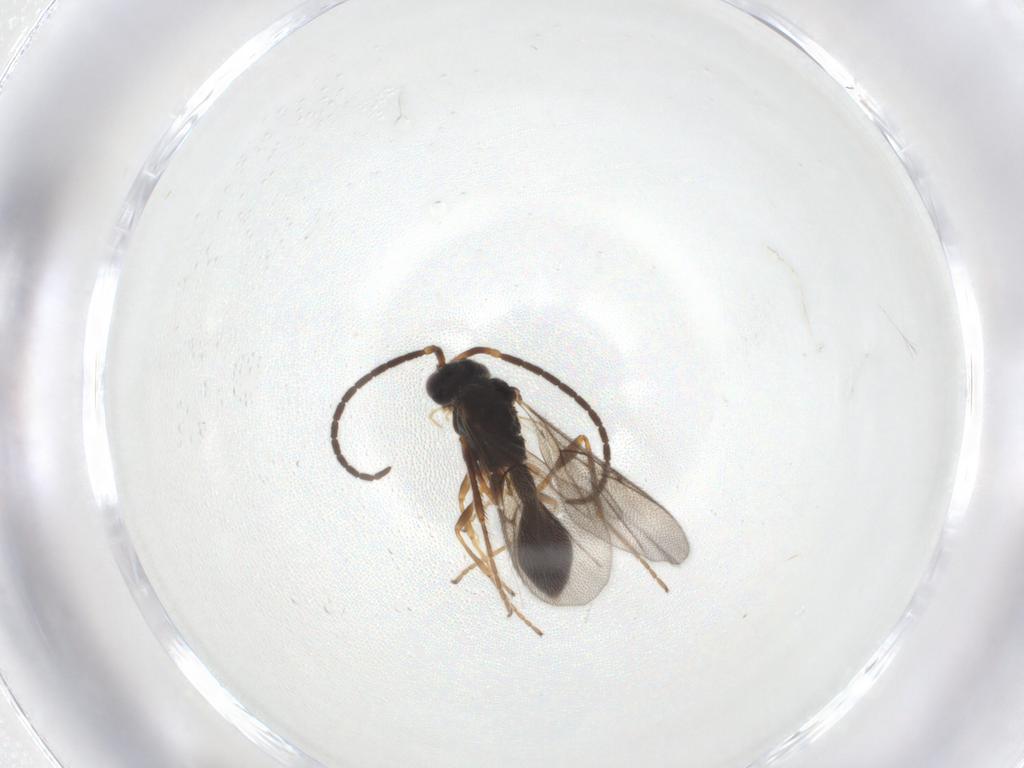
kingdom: Animalia
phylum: Arthropoda
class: Insecta
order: Hymenoptera
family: Diapriidae
